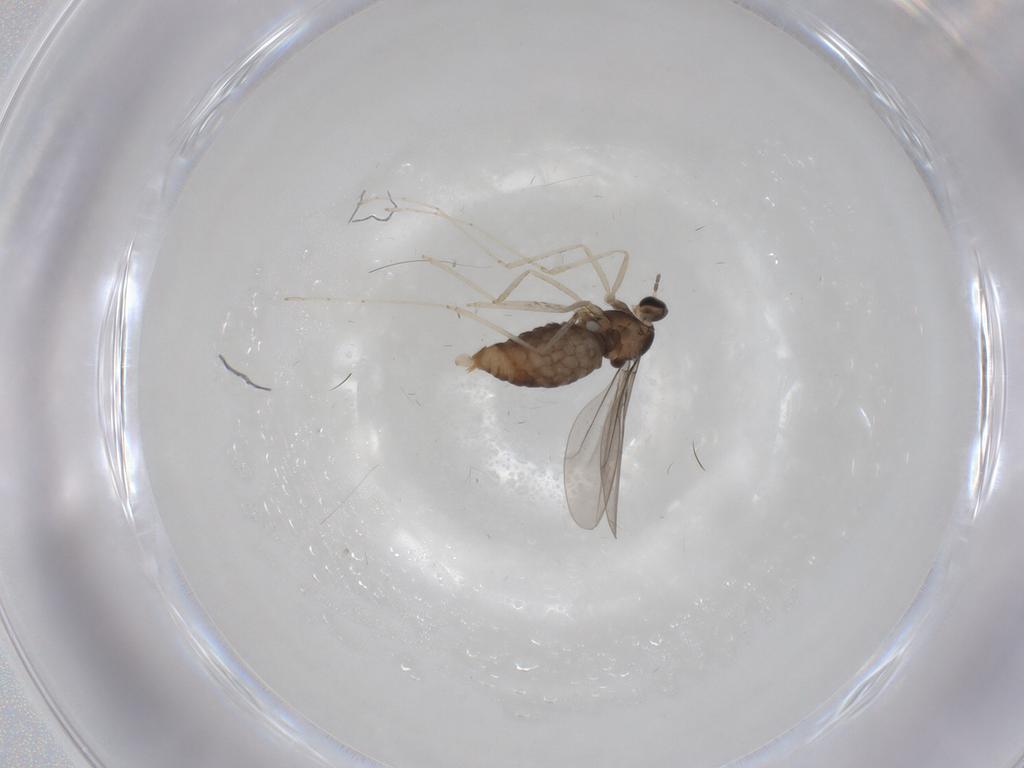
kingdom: Animalia
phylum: Arthropoda
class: Insecta
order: Diptera
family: Cecidomyiidae
